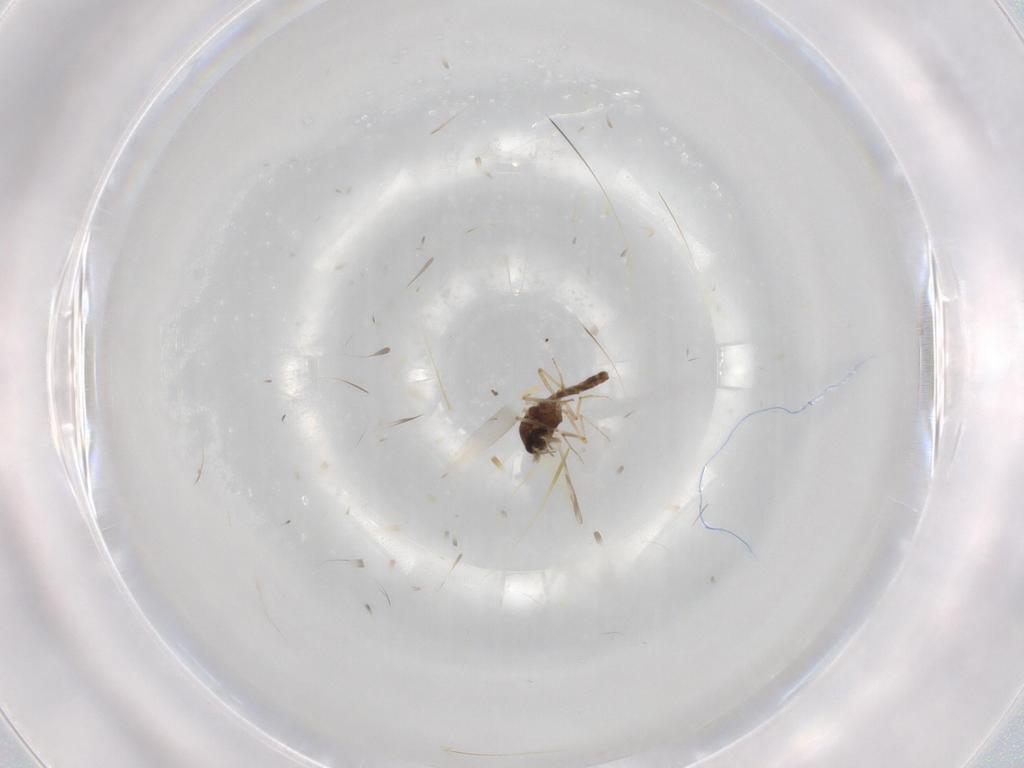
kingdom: Animalia
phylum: Arthropoda
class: Insecta
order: Diptera
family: Cecidomyiidae
